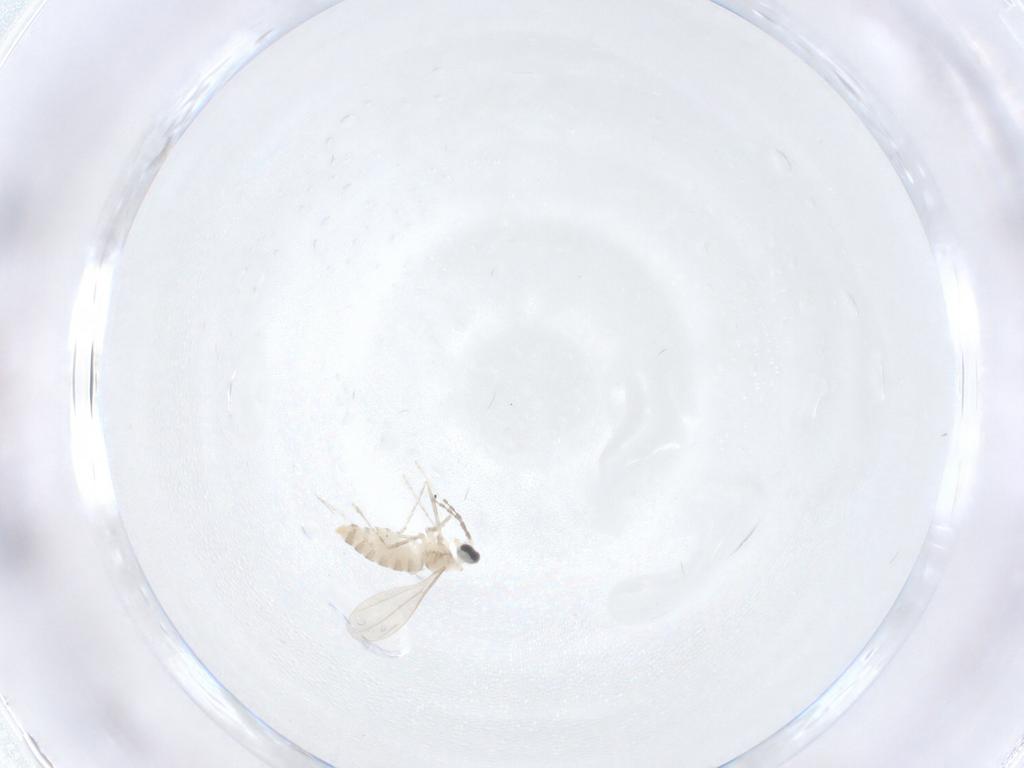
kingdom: Animalia
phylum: Arthropoda
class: Insecta
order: Diptera
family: Cecidomyiidae
